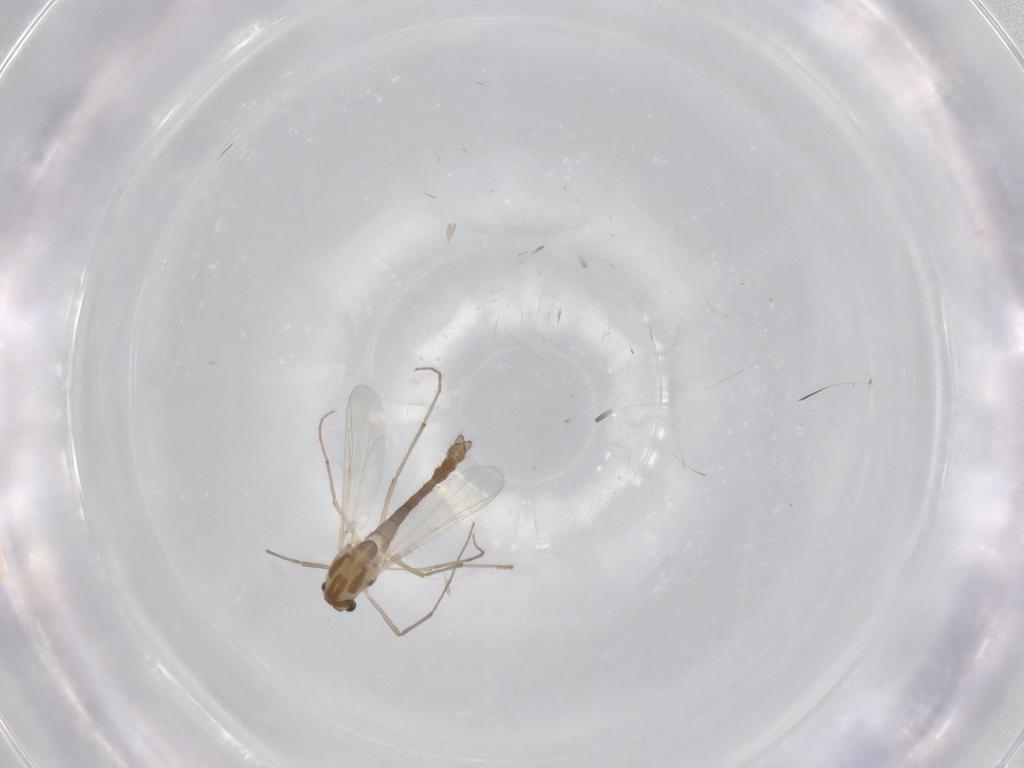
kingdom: Animalia
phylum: Arthropoda
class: Insecta
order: Diptera
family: Chironomidae
